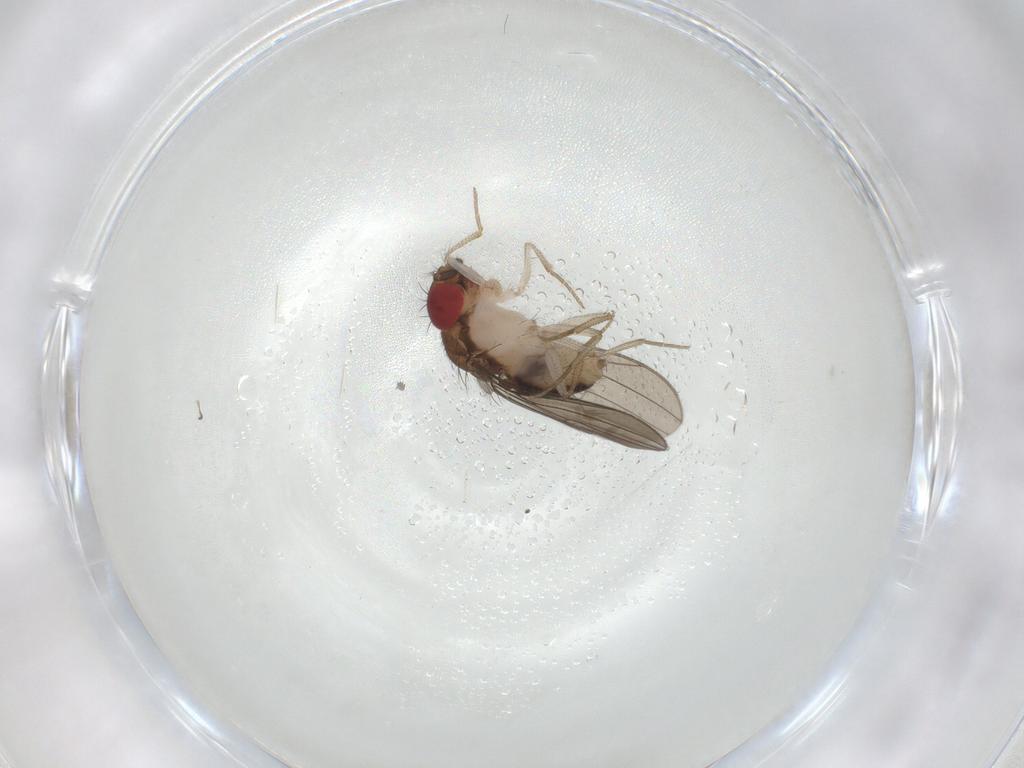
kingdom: Animalia
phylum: Arthropoda
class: Insecta
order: Diptera
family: Drosophilidae
